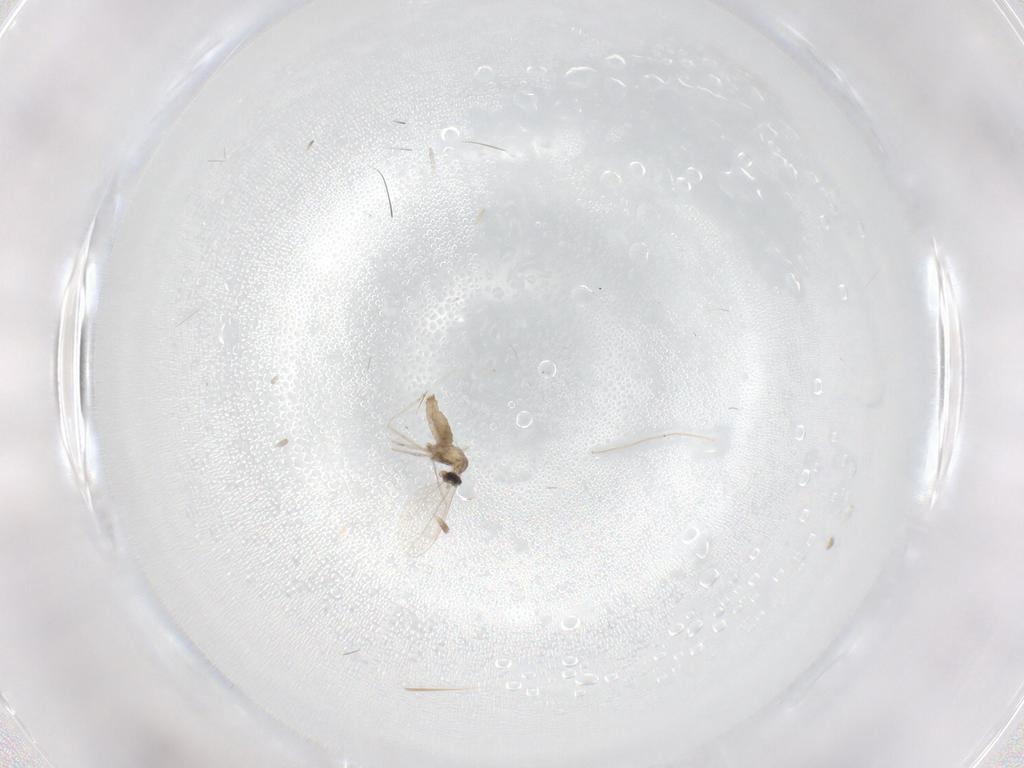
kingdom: Animalia
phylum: Arthropoda
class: Insecta
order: Diptera
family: Cecidomyiidae
